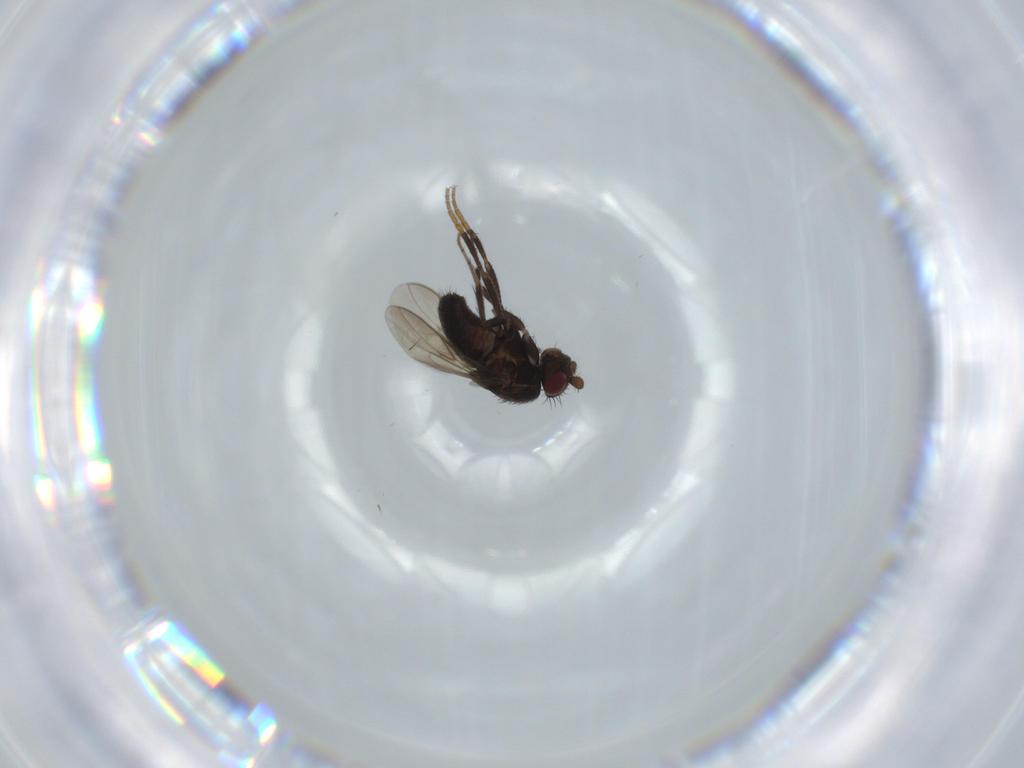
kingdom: Animalia
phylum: Arthropoda
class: Insecta
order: Diptera
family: Sphaeroceridae
